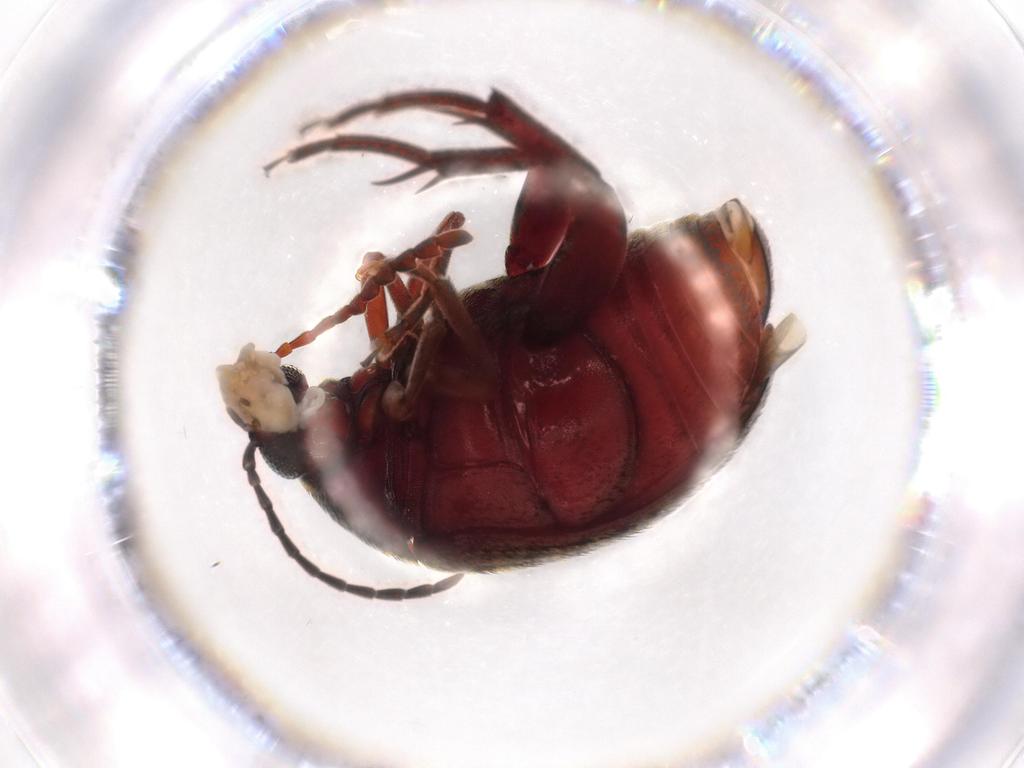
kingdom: Animalia
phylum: Arthropoda
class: Insecta
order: Coleoptera
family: Chrysomelidae
